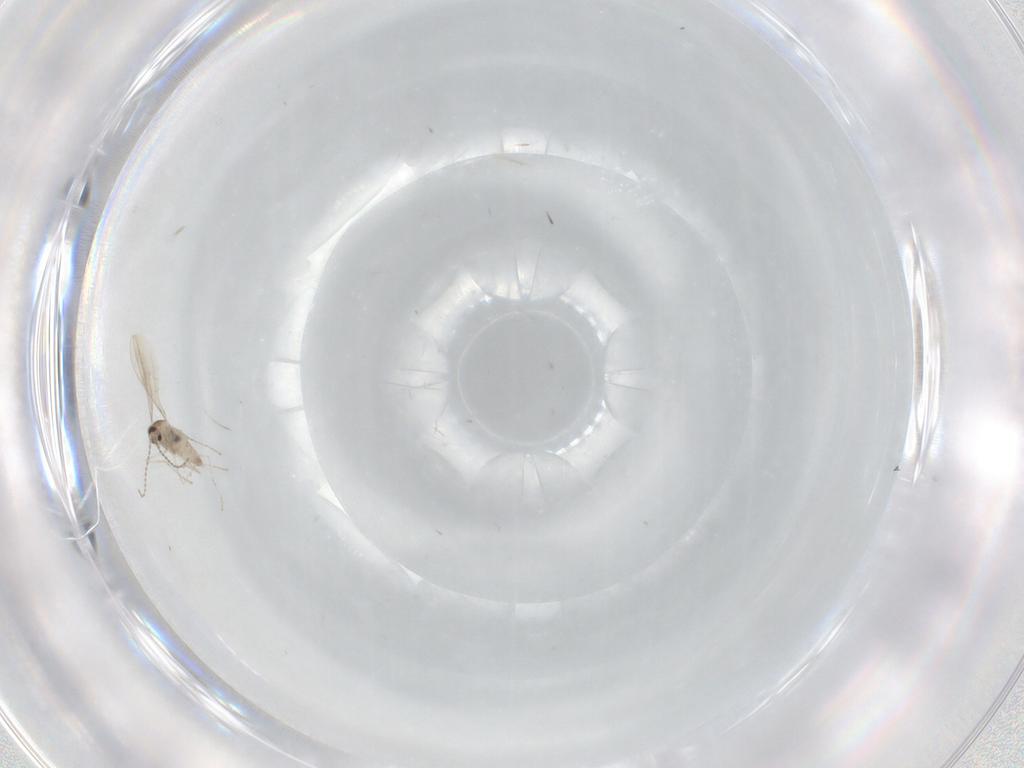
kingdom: Animalia
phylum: Arthropoda
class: Insecta
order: Diptera
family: Cecidomyiidae
